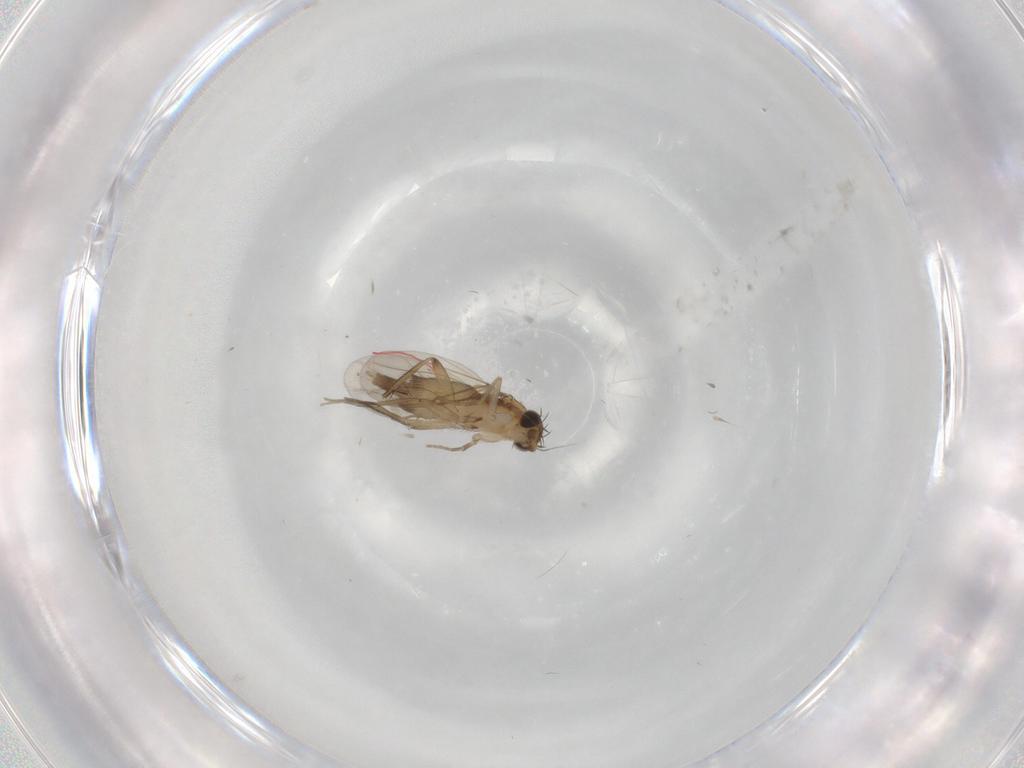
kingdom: Animalia
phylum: Arthropoda
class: Insecta
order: Diptera
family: Phoridae
